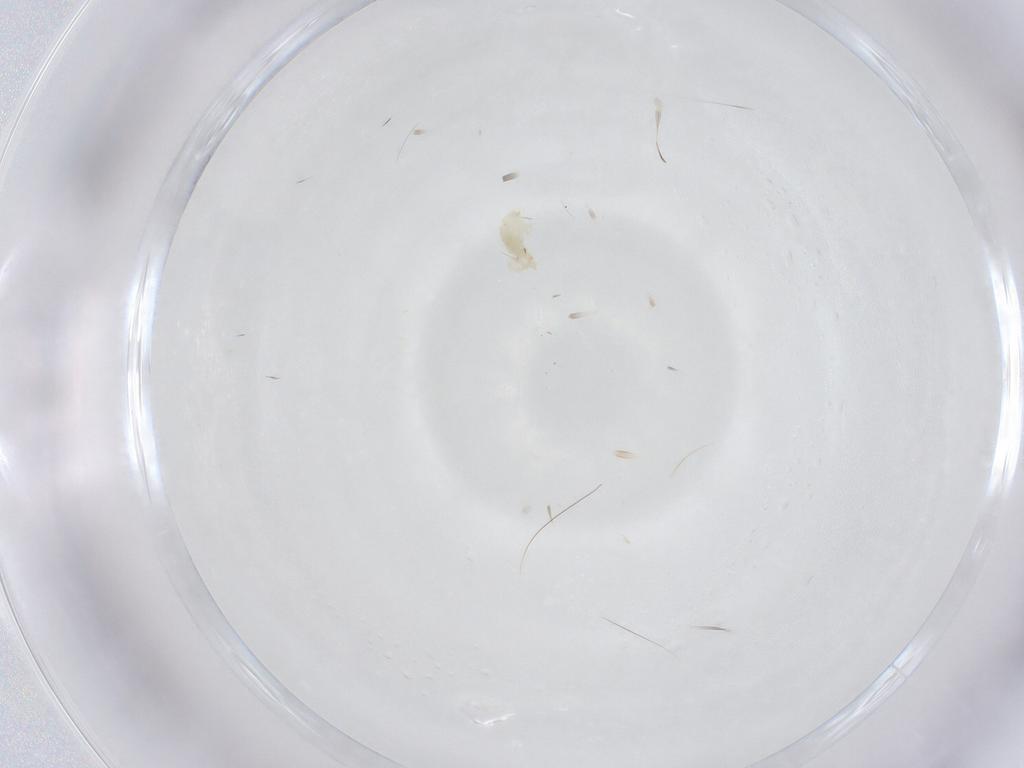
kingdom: Animalia
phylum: Arthropoda
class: Arachnida
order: Mesostigmata
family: Phytoseiidae
